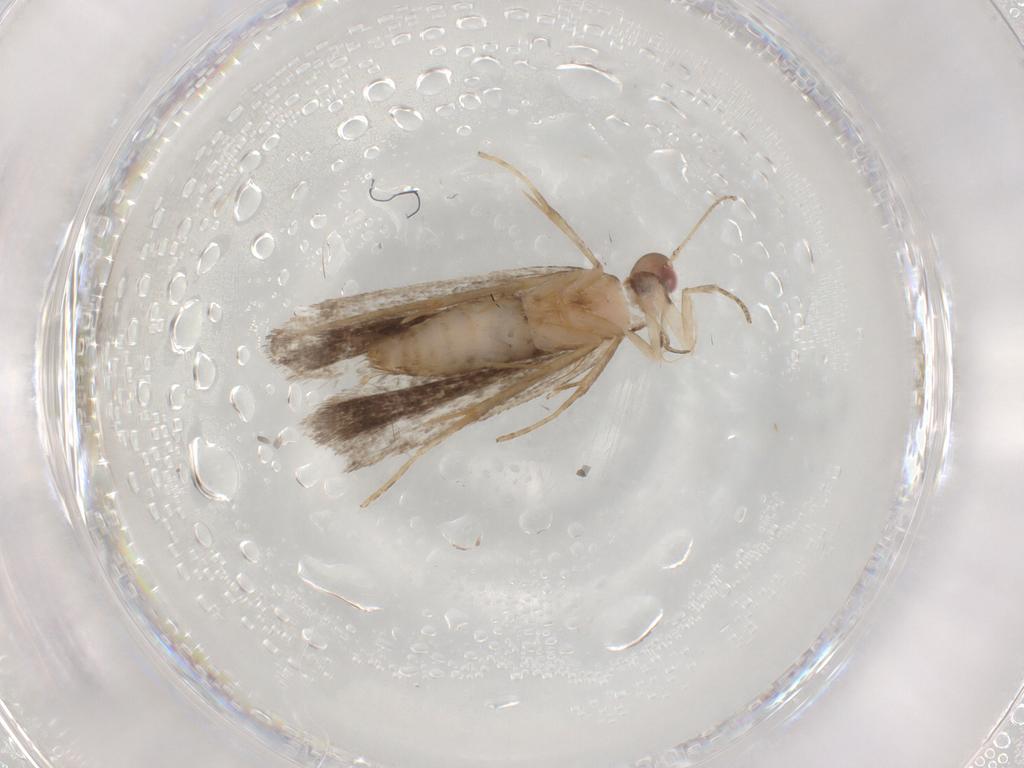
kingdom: Animalia
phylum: Arthropoda
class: Insecta
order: Lepidoptera
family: Gelechiidae
